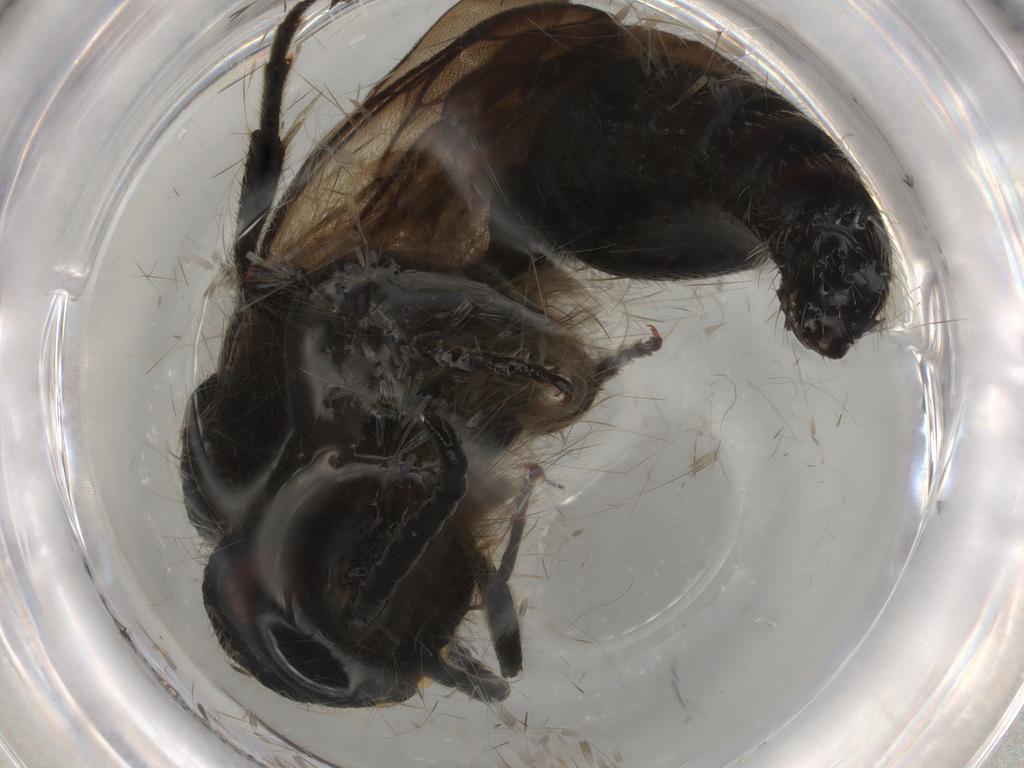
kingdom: Animalia
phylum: Arthropoda
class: Insecta
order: Hymenoptera
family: Mutillidae
